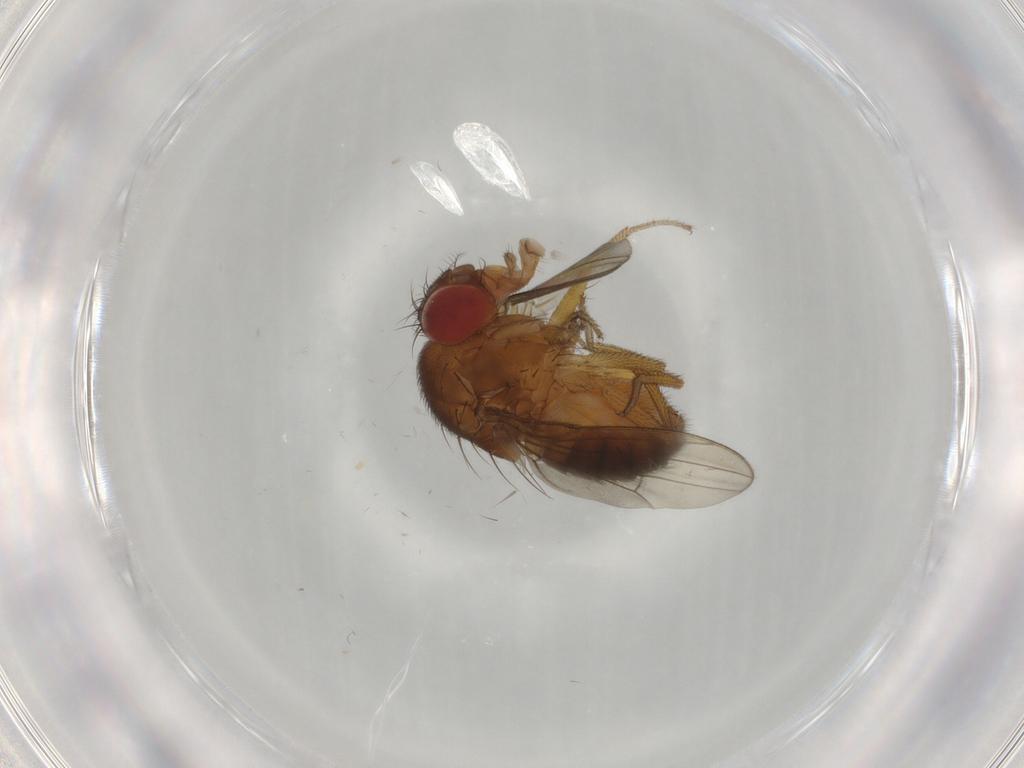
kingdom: Animalia
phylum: Arthropoda
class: Insecta
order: Diptera
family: Drosophilidae
